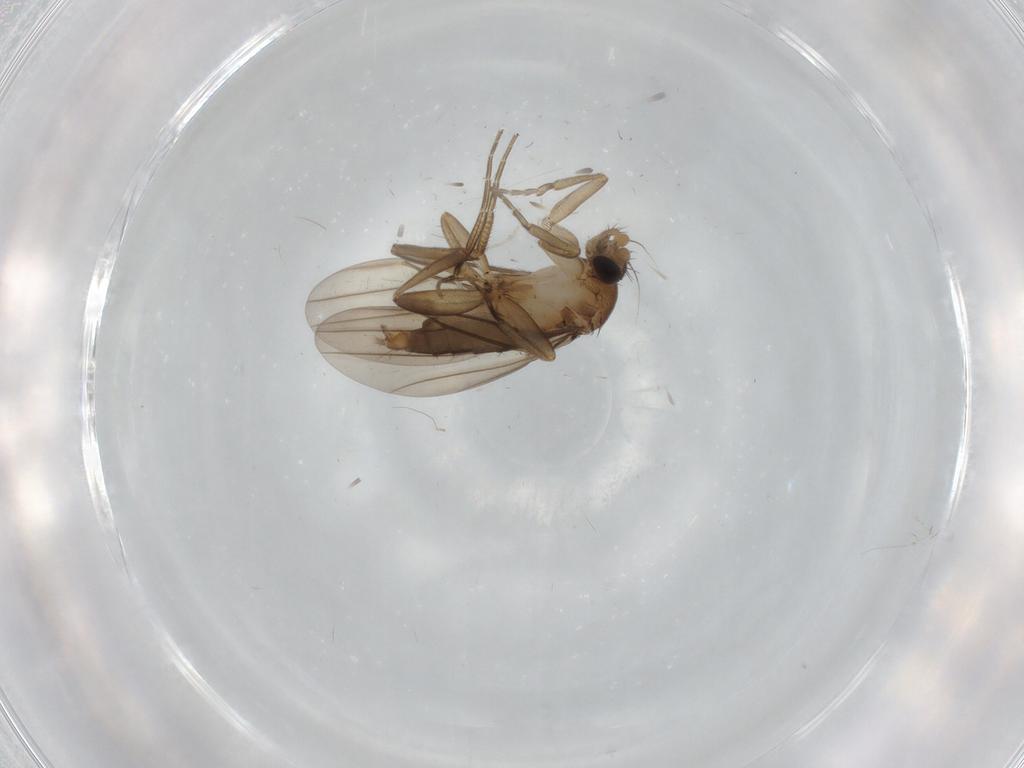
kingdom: Animalia
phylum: Arthropoda
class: Insecta
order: Diptera
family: Phoridae
